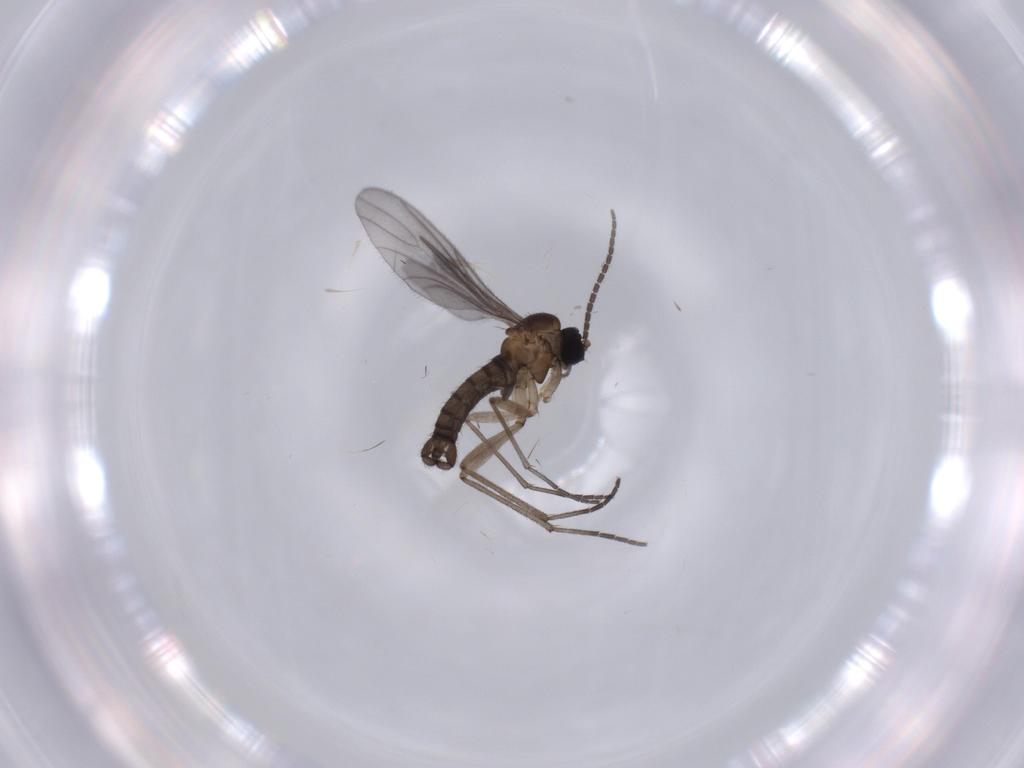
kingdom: Animalia
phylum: Arthropoda
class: Insecta
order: Diptera
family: Sciaridae
